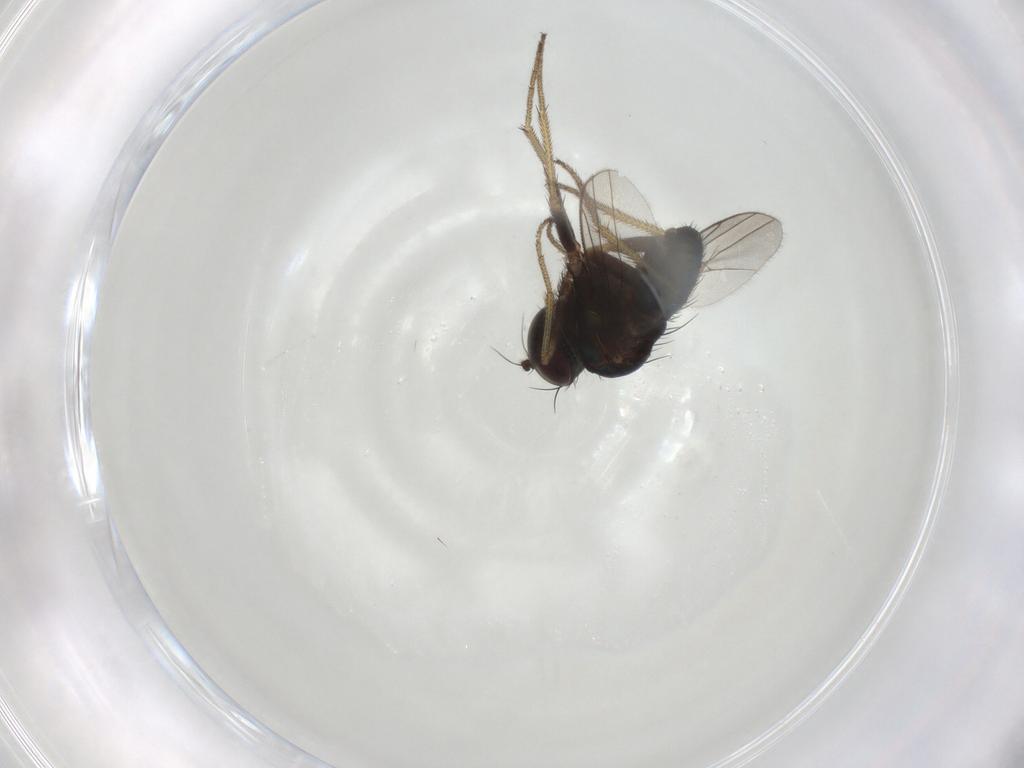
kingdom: Animalia
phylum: Arthropoda
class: Insecta
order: Diptera
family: Dolichopodidae
